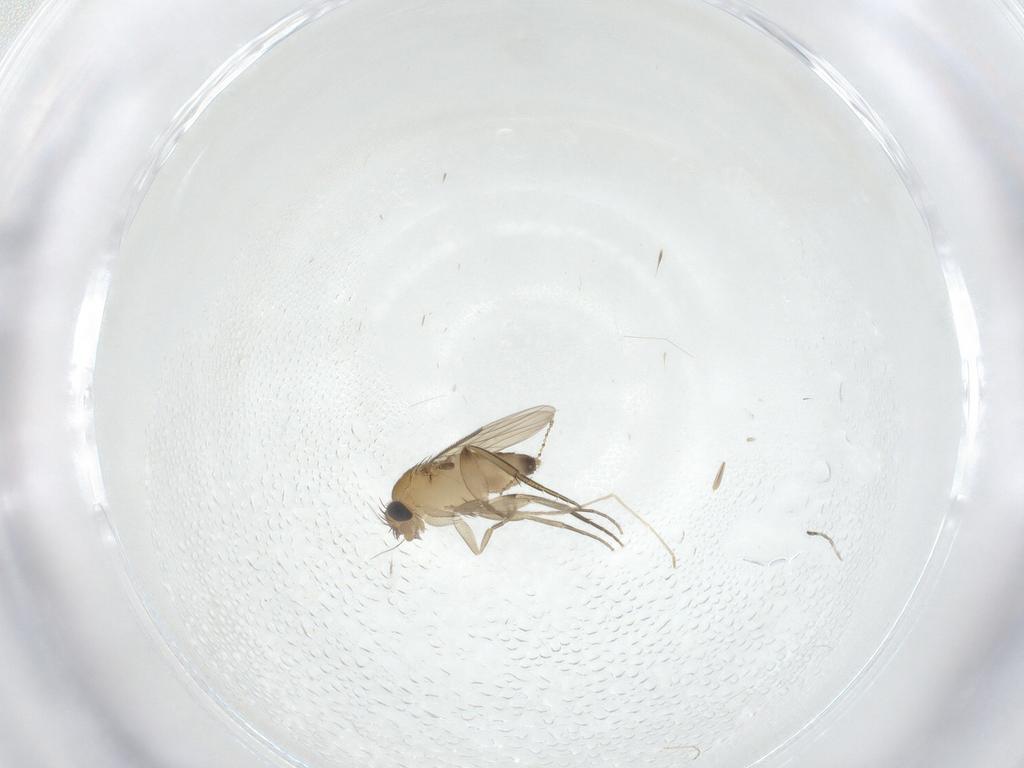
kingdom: Animalia
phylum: Arthropoda
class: Insecta
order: Diptera
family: Phoridae
